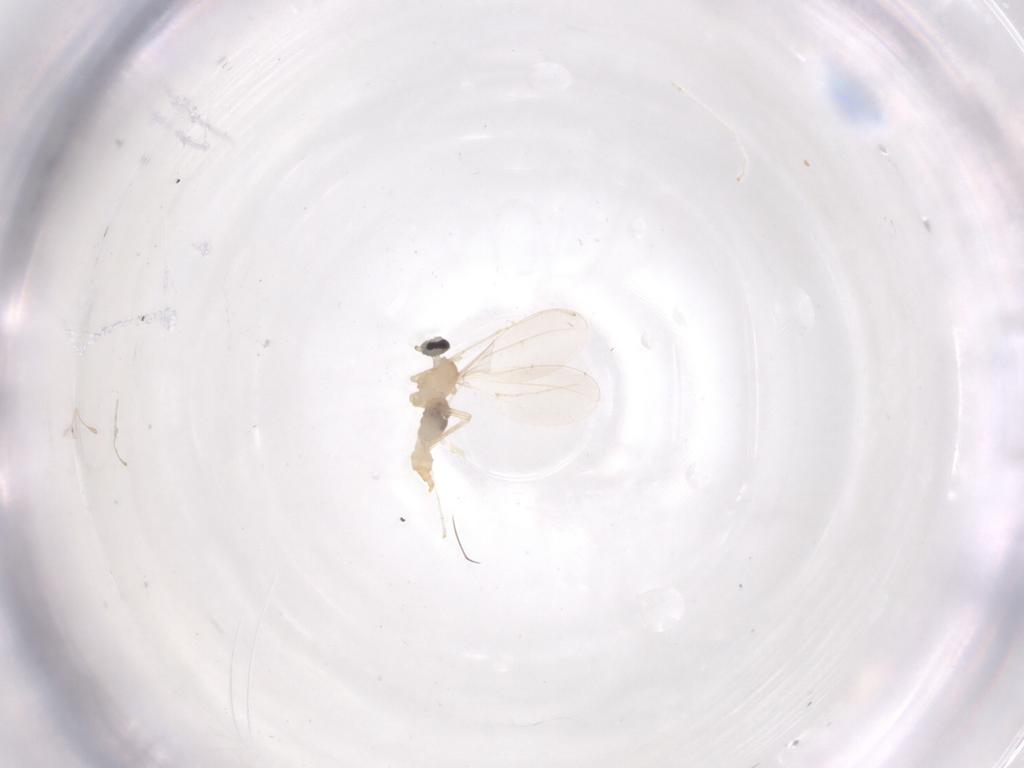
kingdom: Animalia
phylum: Arthropoda
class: Insecta
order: Diptera
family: Cecidomyiidae
